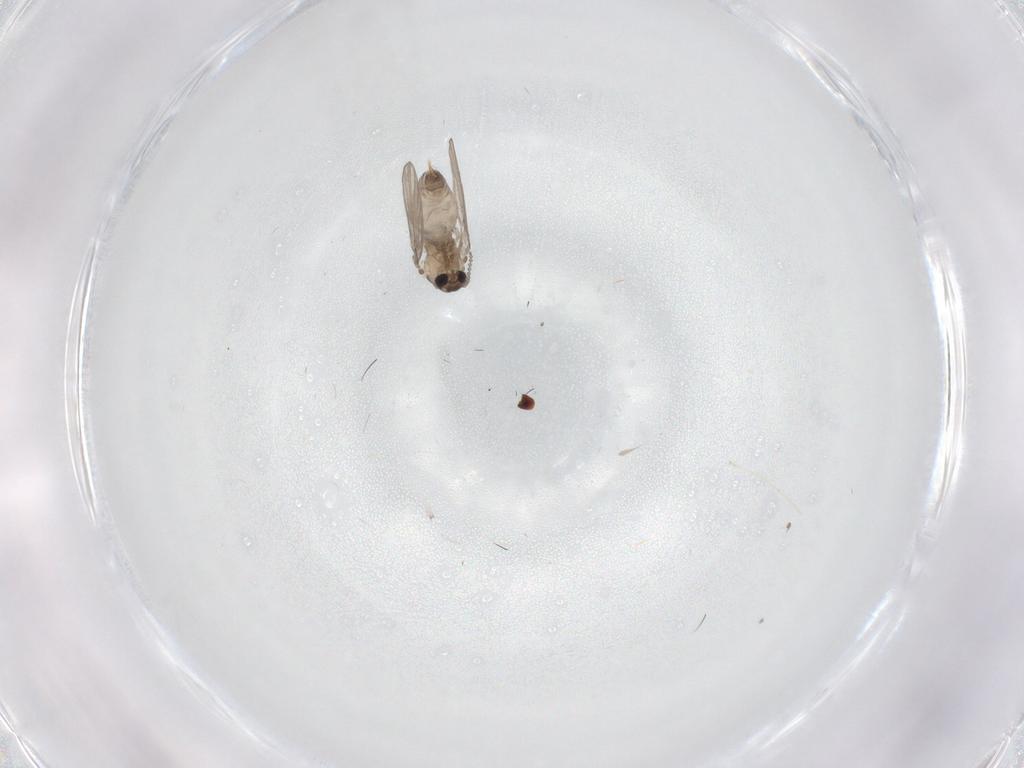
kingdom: Animalia
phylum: Arthropoda
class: Insecta
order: Diptera
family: Psychodidae
